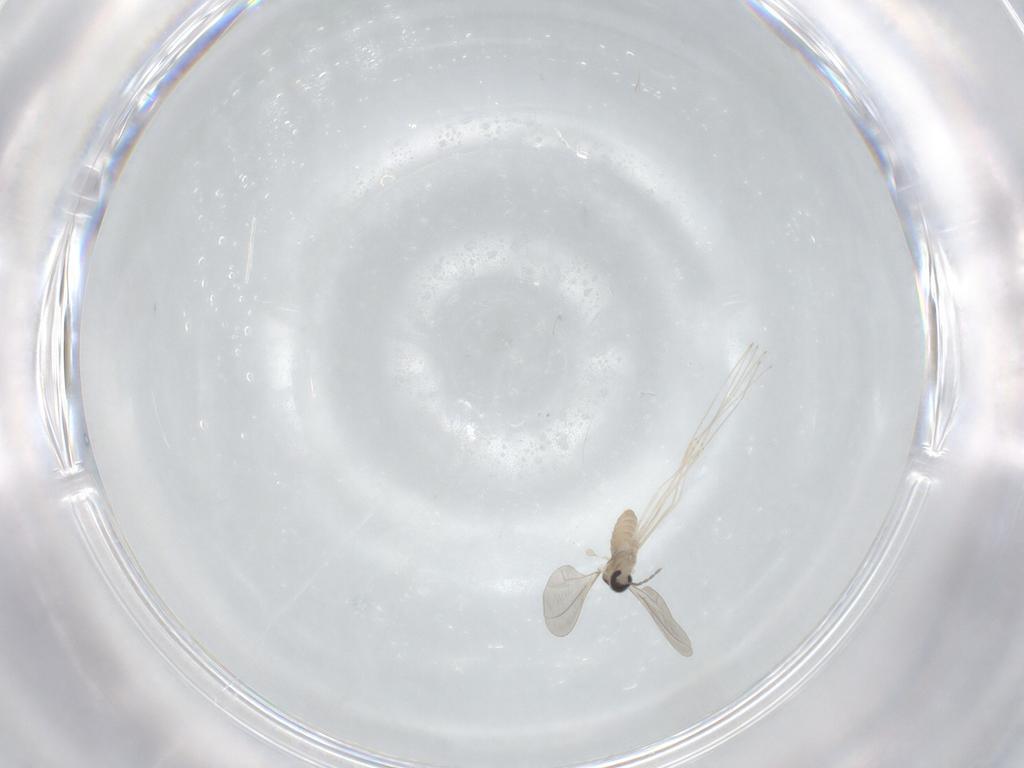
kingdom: Animalia
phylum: Arthropoda
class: Insecta
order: Diptera
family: Cecidomyiidae
